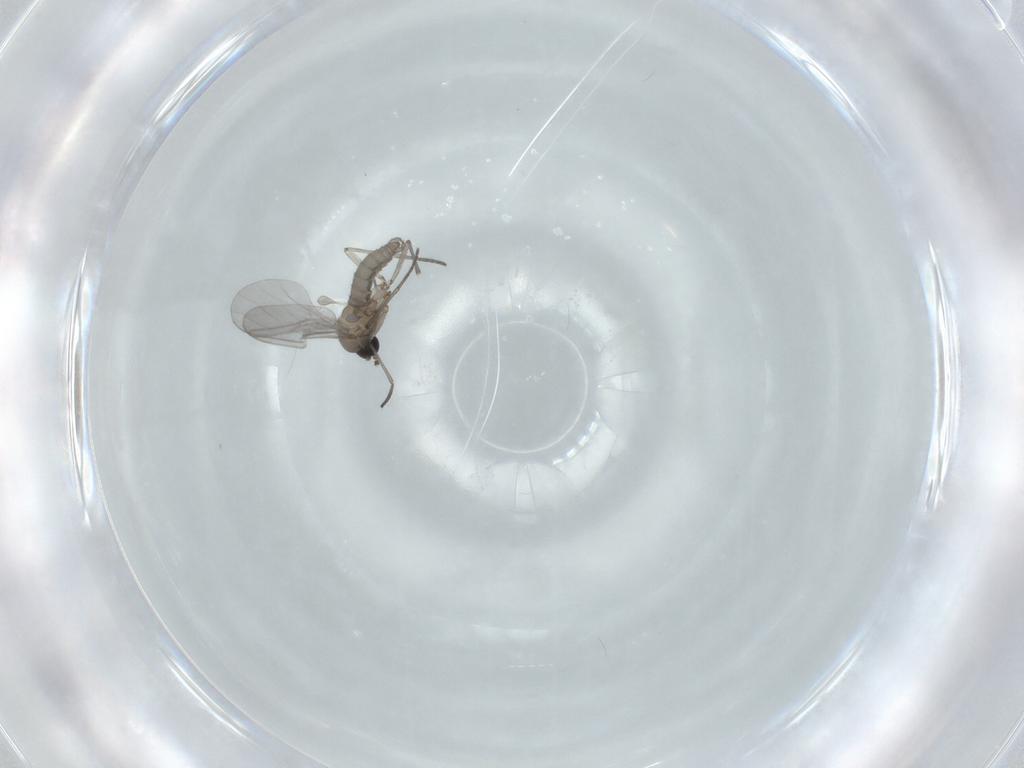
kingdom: Animalia
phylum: Arthropoda
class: Insecta
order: Diptera
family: Sciaridae
